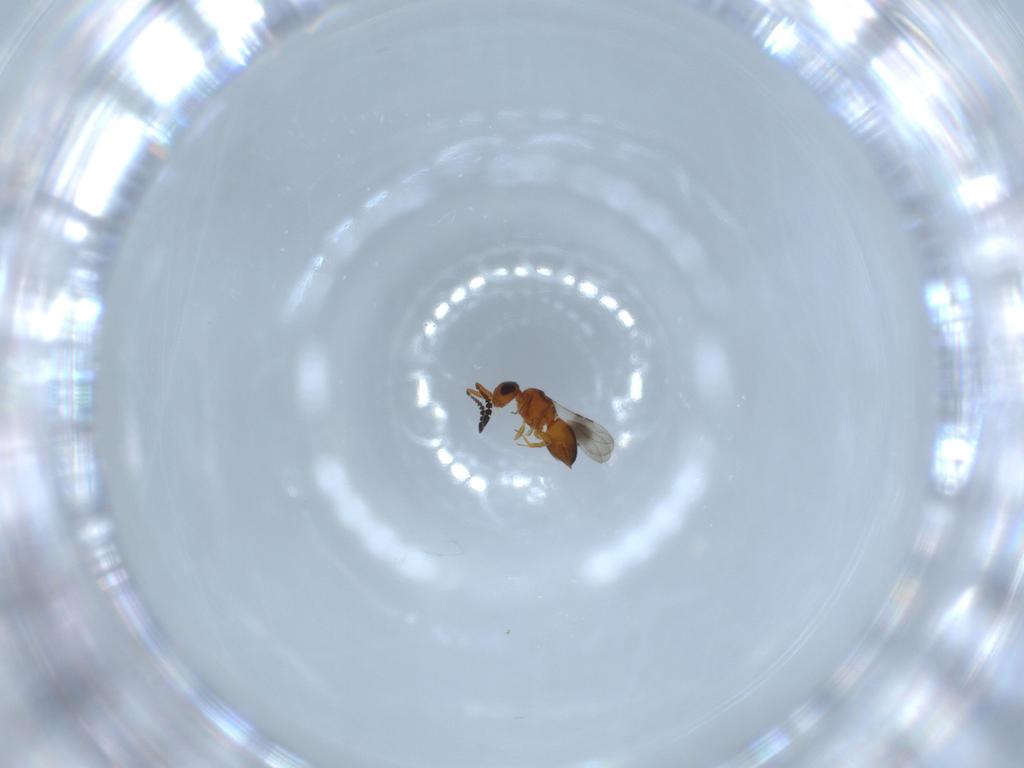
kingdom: Animalia
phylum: Arthropoda
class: Insecta
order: Hymenoptera
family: Ceraphronidae
